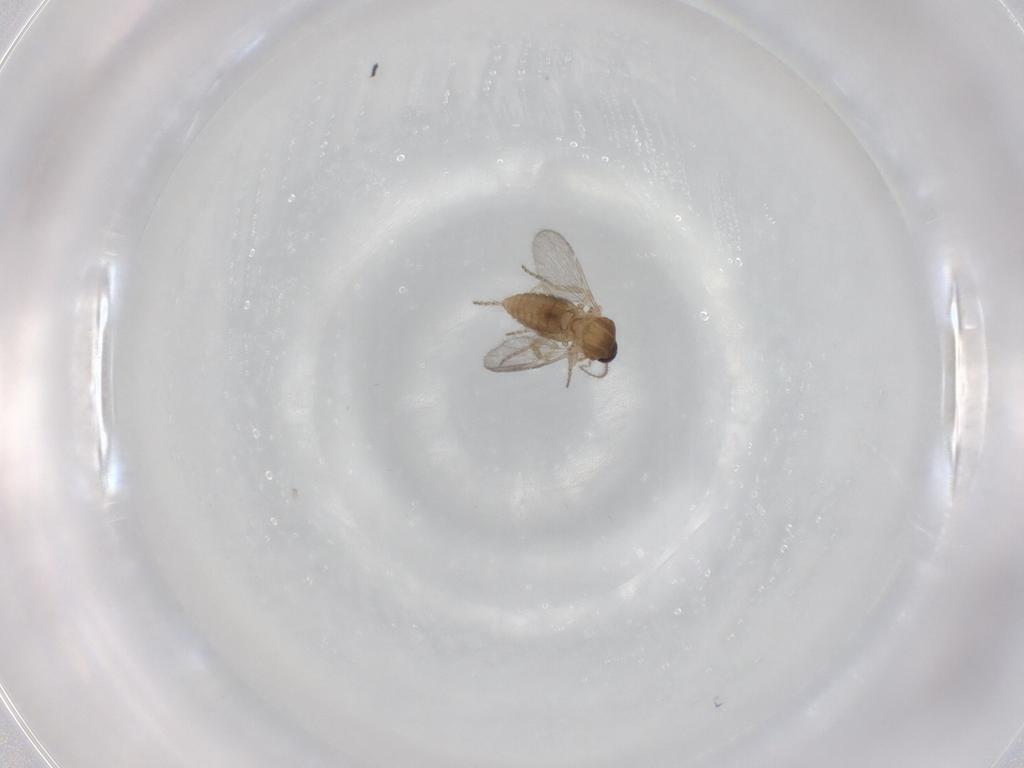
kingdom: Animalia
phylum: Arthropoda
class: Insecta
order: Diptera
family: Ceratopogonidae
